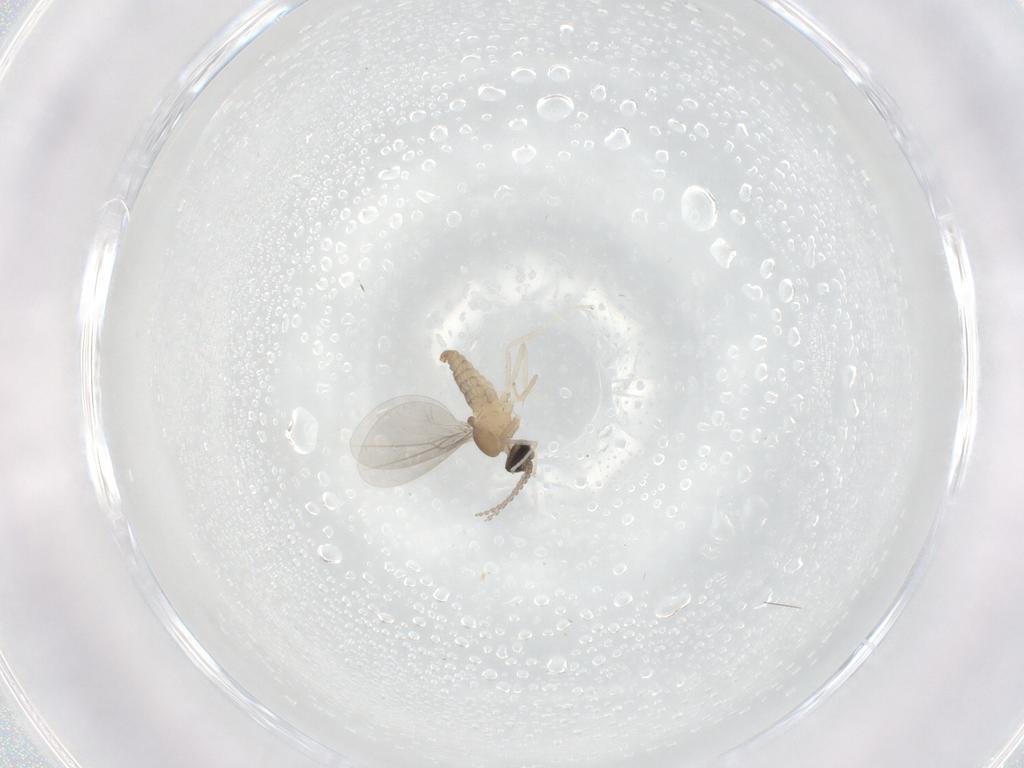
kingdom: Animalia
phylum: Arthropoda
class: Insecta
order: Diptera
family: Cecidomyiidae
